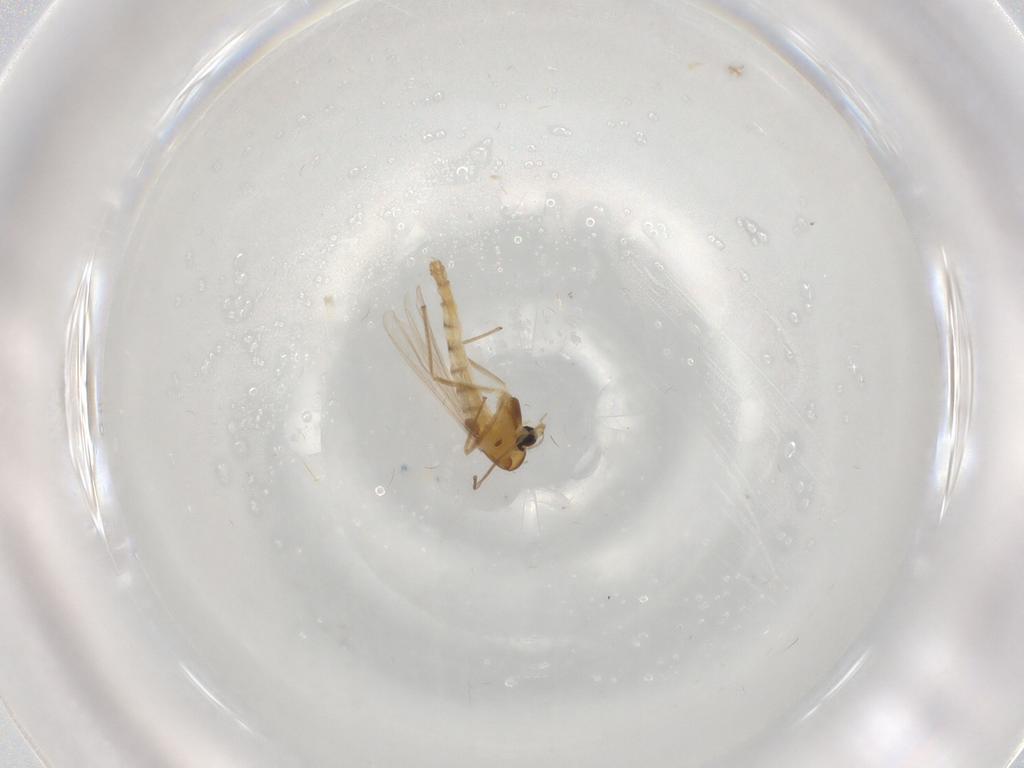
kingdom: Animalia
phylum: Arthropoda
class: Insecta
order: Diptera
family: Chironomidae
